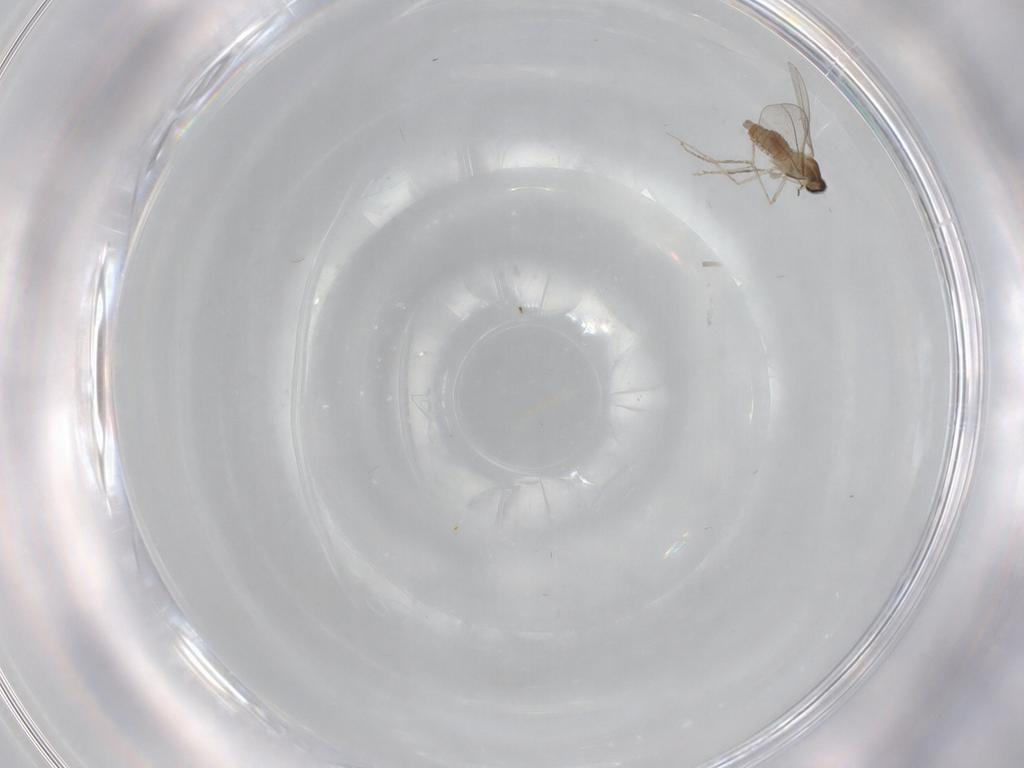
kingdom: Animalia
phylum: Arthropoda
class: Insecta
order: Diptera
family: Cecidomyiidae
